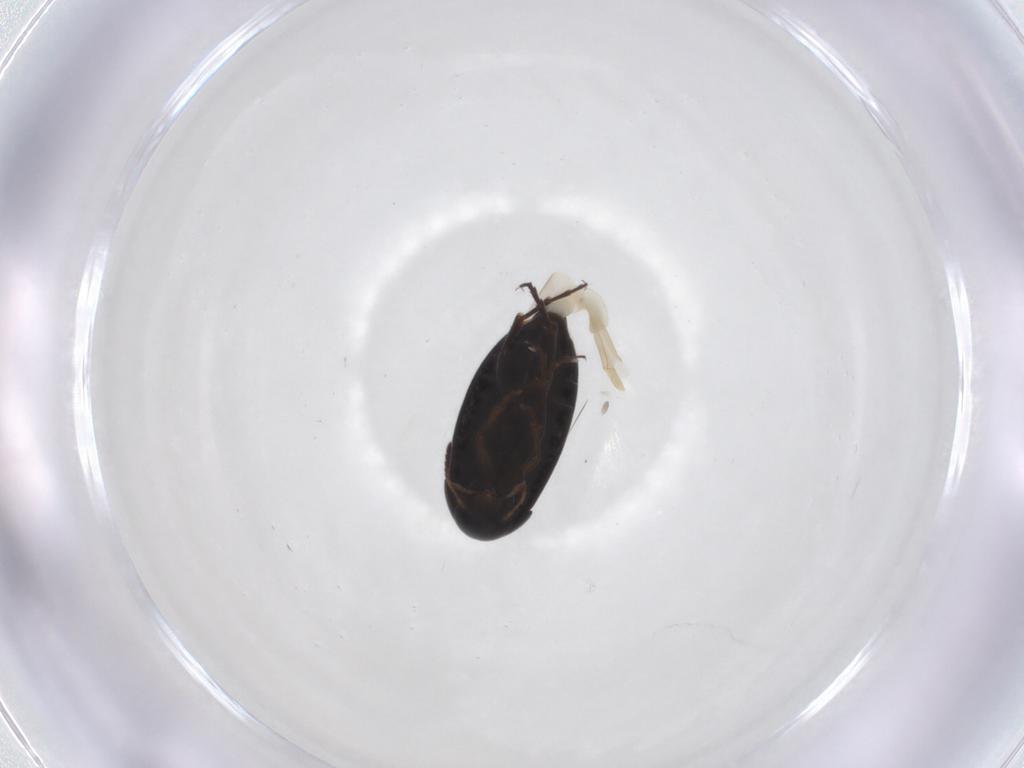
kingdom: Animalia
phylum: Arthropoda
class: Insecta
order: Coleoptera
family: Scraptiidae
